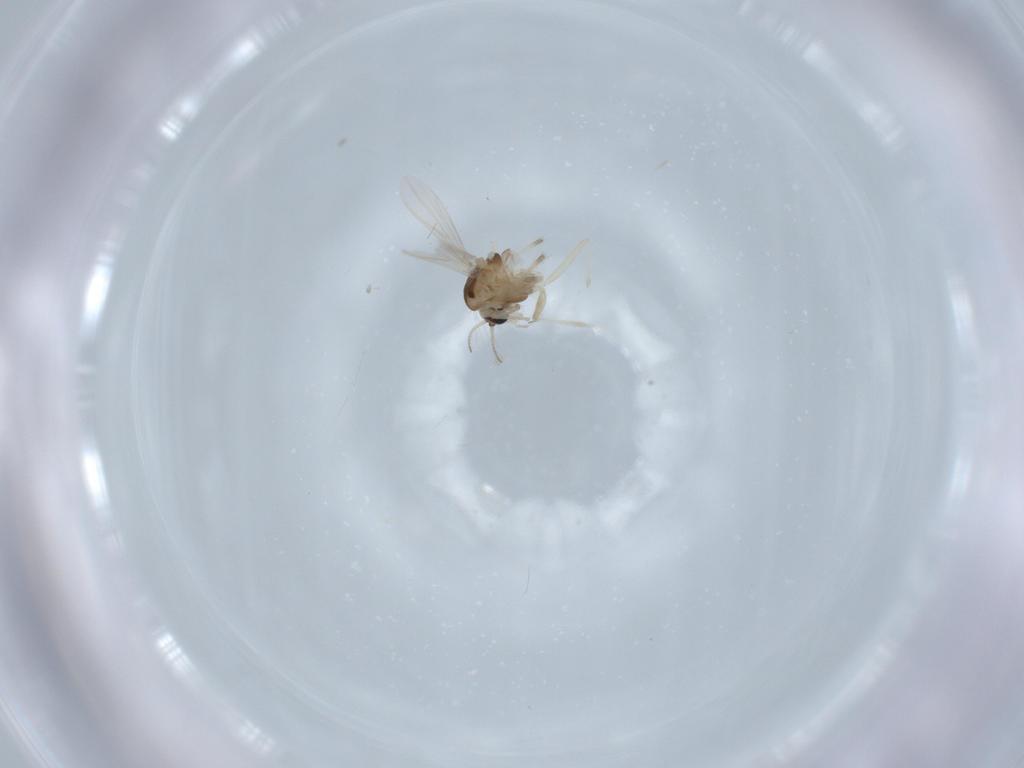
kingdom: Animalia
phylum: Arthropoda
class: Insecta
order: Diptera
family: Chironomidae
